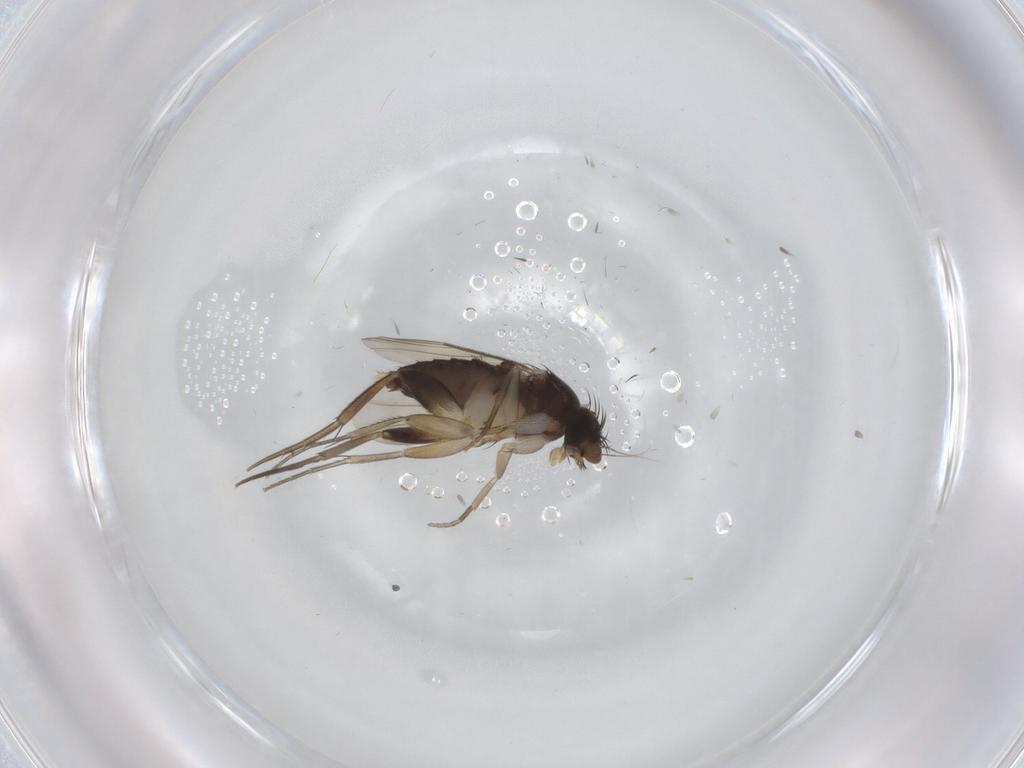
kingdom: Animalia
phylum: Arthropoda
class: Insecta
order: Diptera
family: Phoridae
